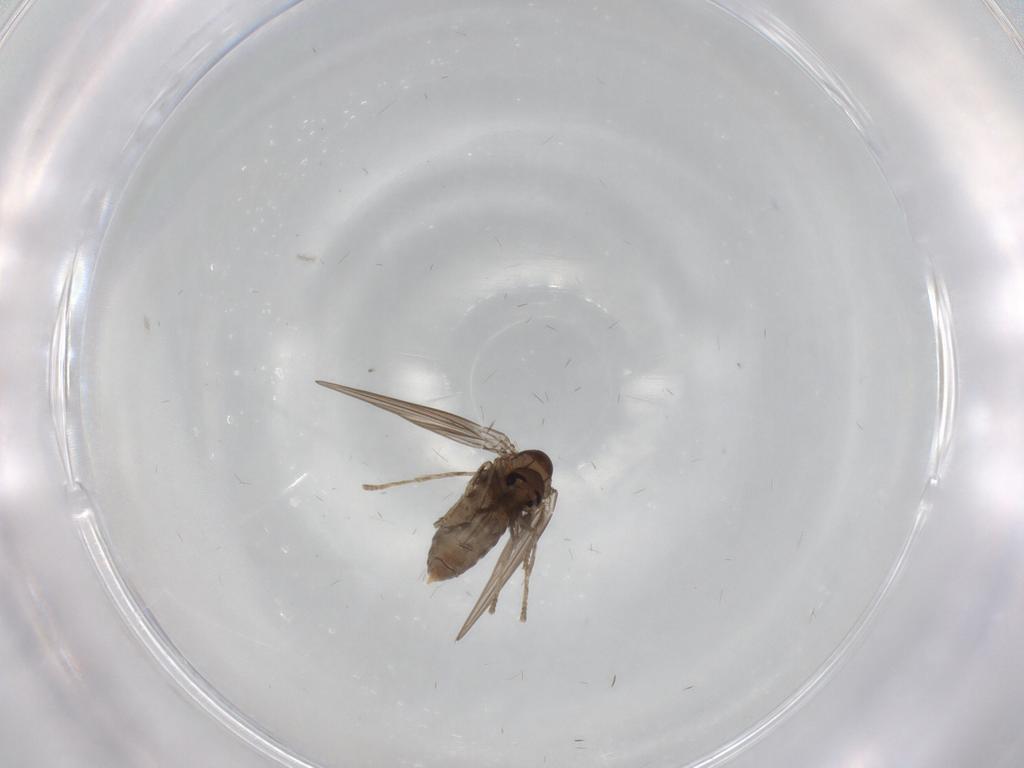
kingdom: Animalia
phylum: Arthropoda
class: Insecta
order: Diptera
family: Psychodidae
